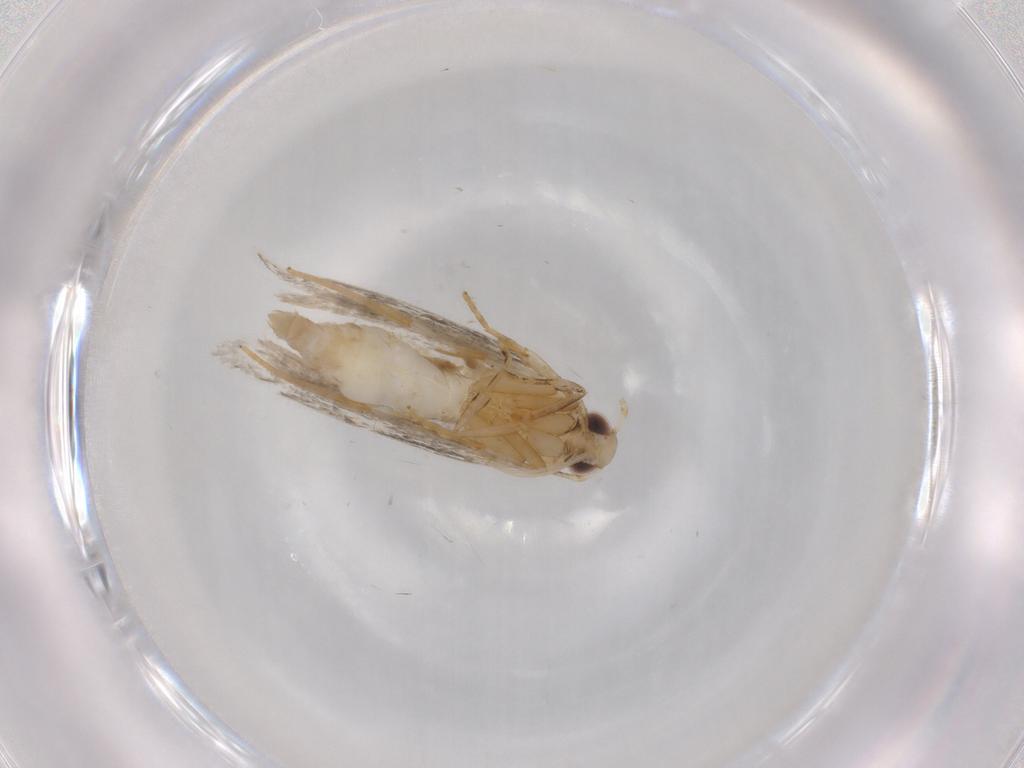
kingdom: Animalia
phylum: Arthropoda
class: Insecta
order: Lepidoptera
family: Autostichidae
